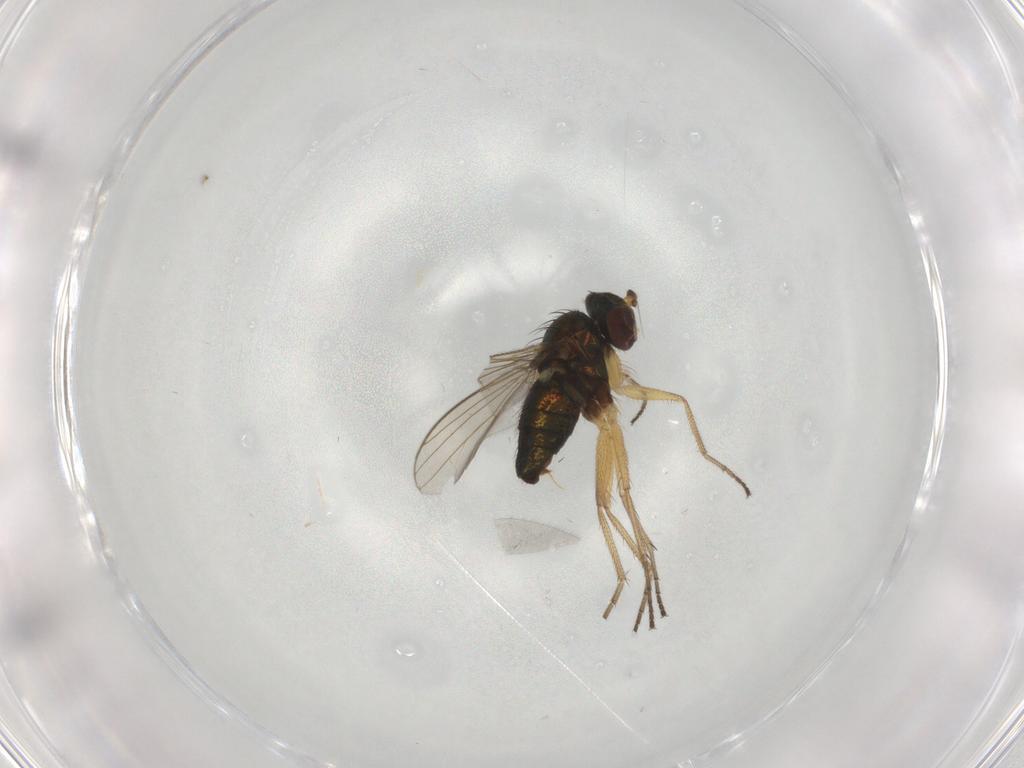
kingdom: Animalia
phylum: Arthropoda
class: Insecta
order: Diptera
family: Dolichopodidae
